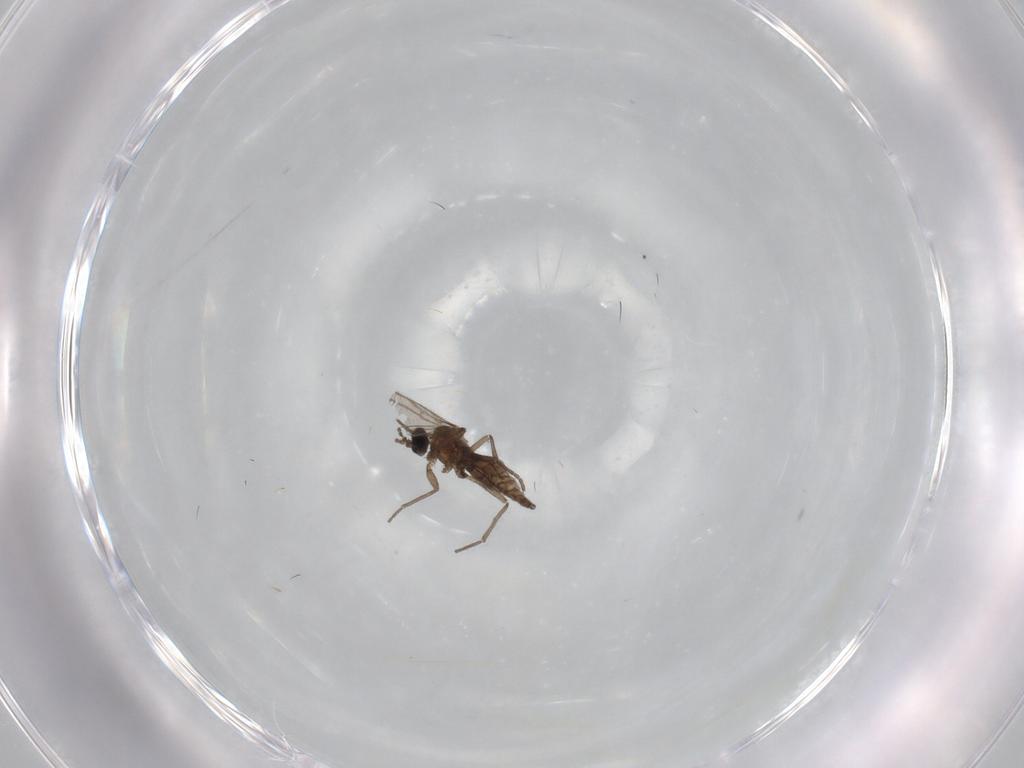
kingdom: Animalia
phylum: Arthropoda
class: Insecta
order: Diptera
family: Sciaridae
